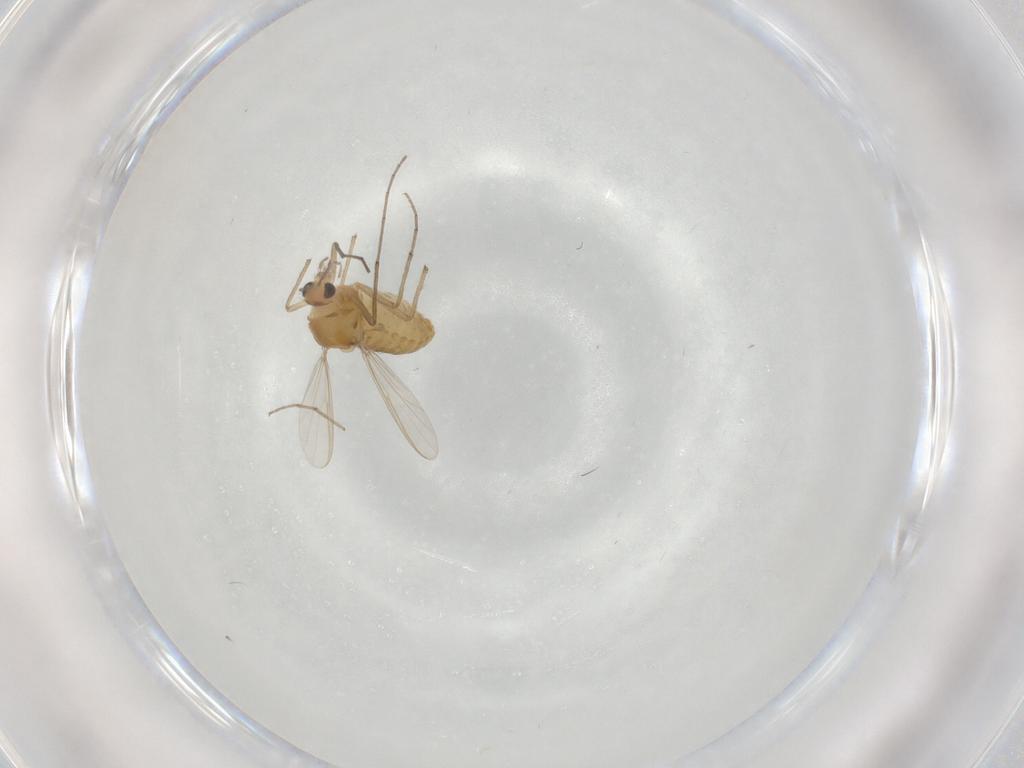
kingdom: Animalia
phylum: Arthropoda
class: Insecta
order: Diptera
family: Chironomidae
